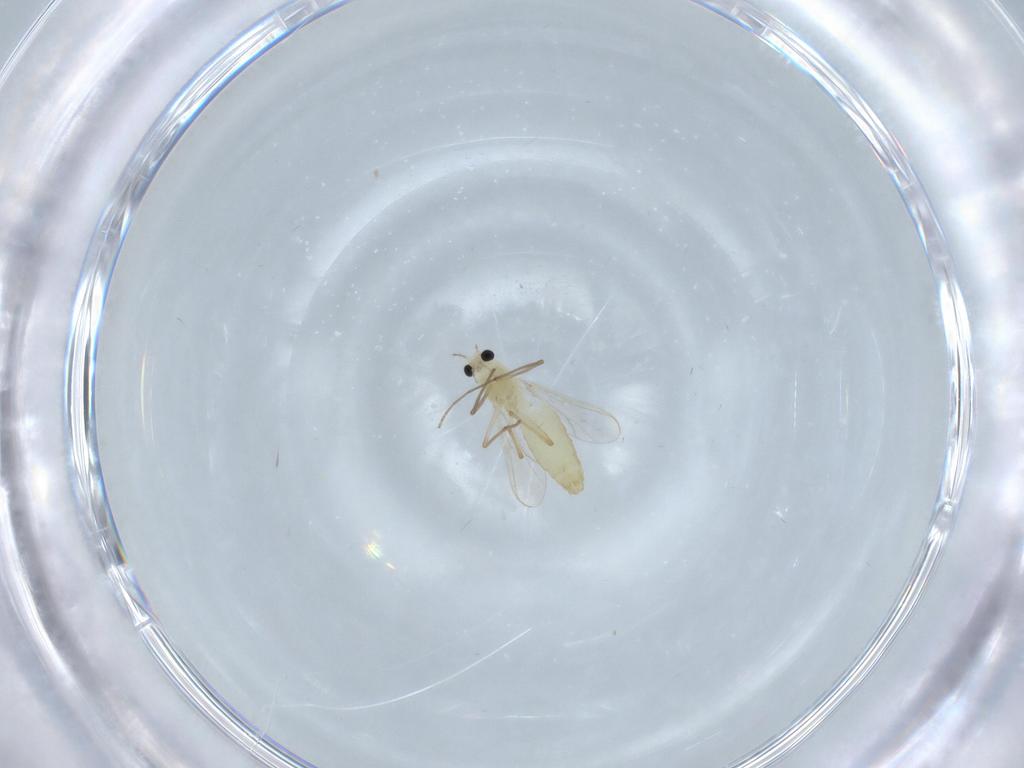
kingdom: Animalia
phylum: Arthropoda
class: Insecta
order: Diptera
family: Chironomidae
